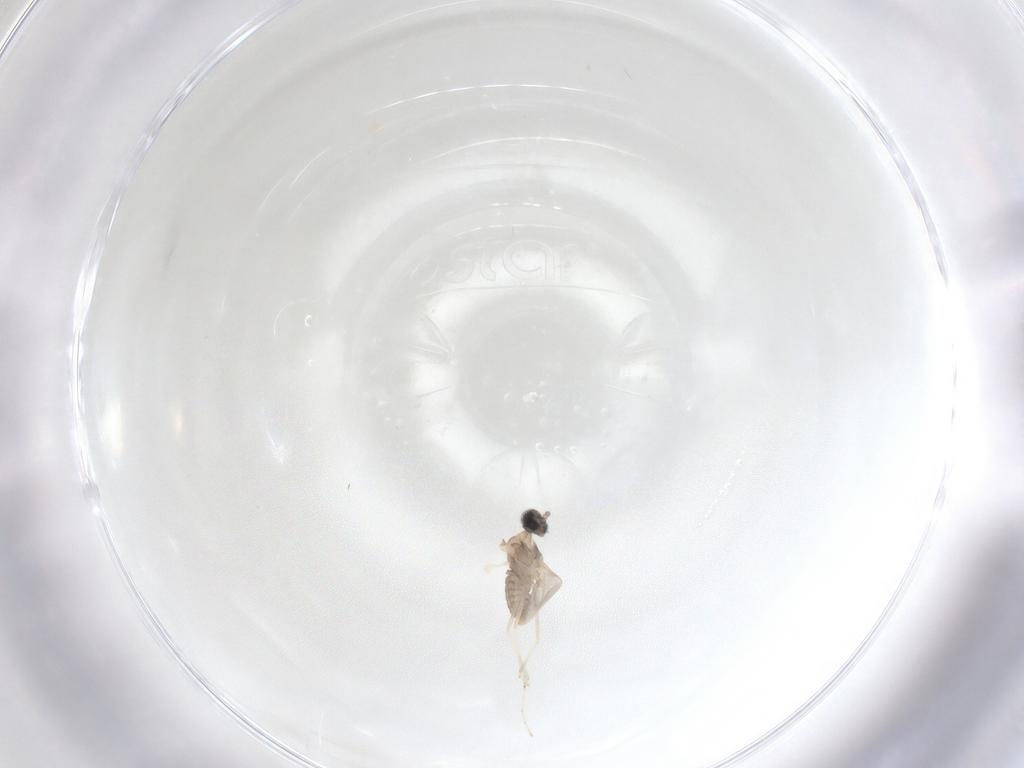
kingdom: Animalia
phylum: Arthropoda
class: Insecta
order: Diptera
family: Cecidomyiidae
